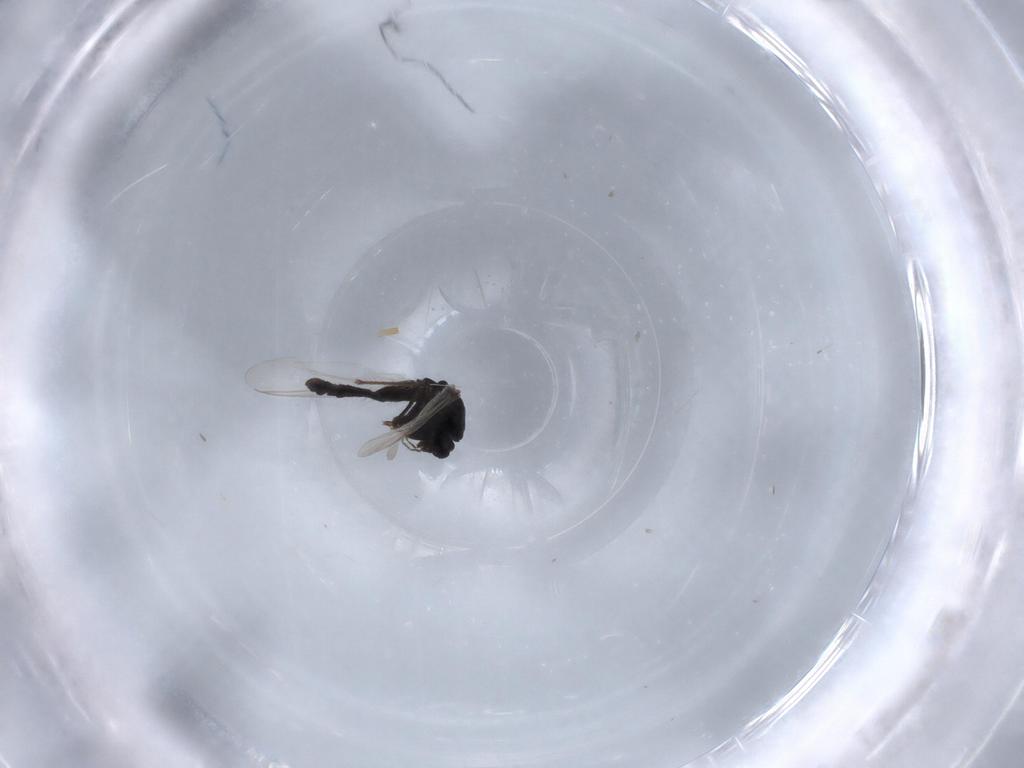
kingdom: Animalia
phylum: Arthropoda
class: Insecta
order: Diptera
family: Chironomidae
